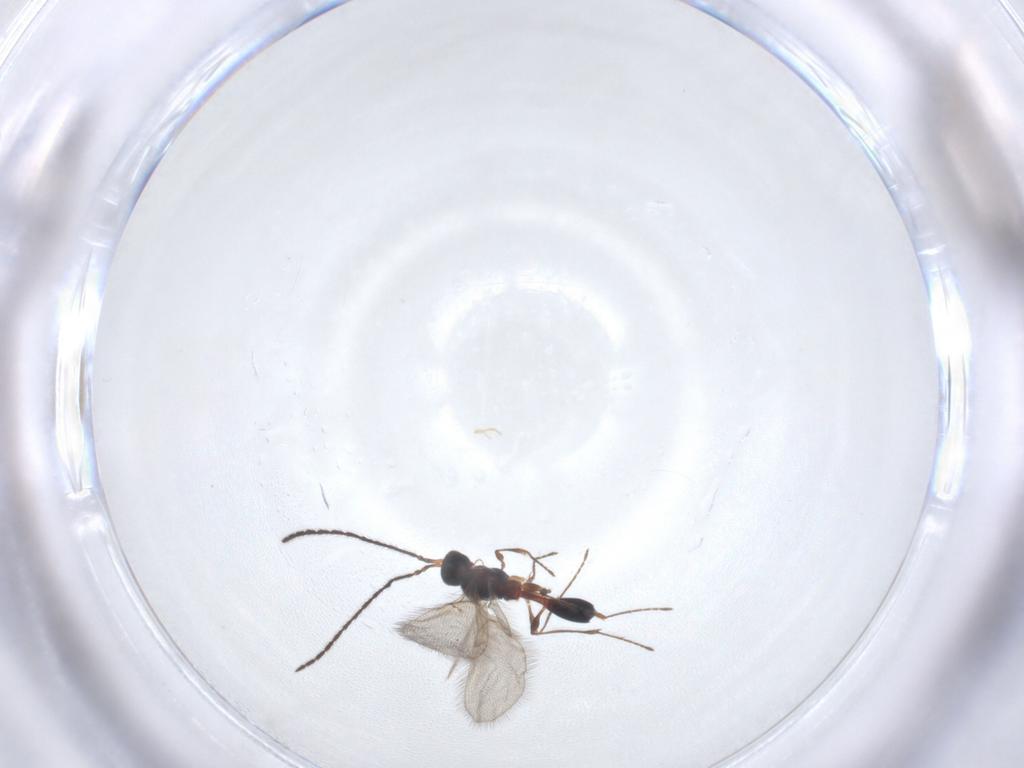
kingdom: Animalia
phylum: Arthropoda
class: Insecta
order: Hymenoptera
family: Diapriidae
